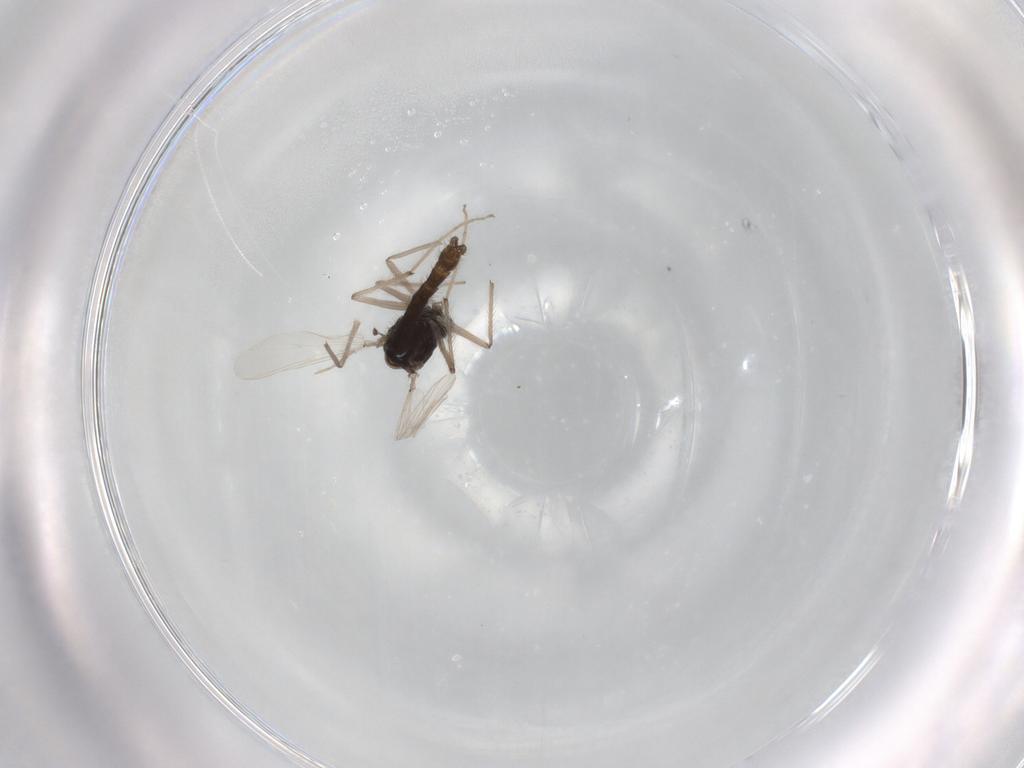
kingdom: Animalia
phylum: Arthropoda
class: Insecta
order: Diptera
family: Chironomidae
